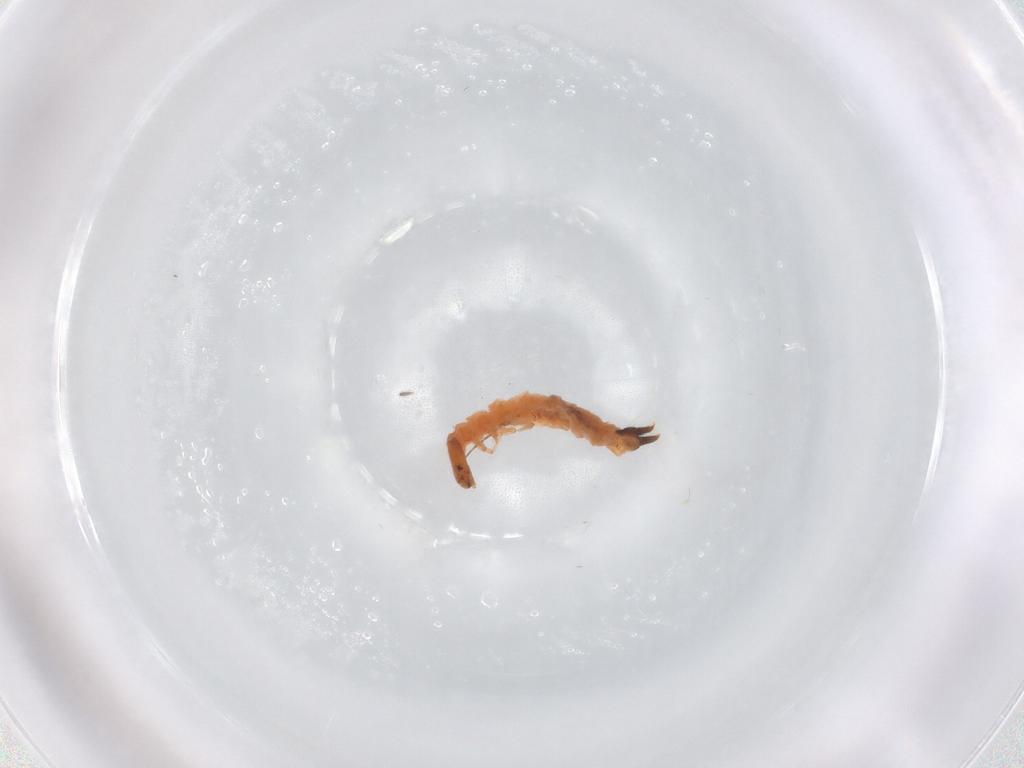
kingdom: Animalia
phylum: Arthropoda
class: Insecta
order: Coleoptera
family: Melyridae
